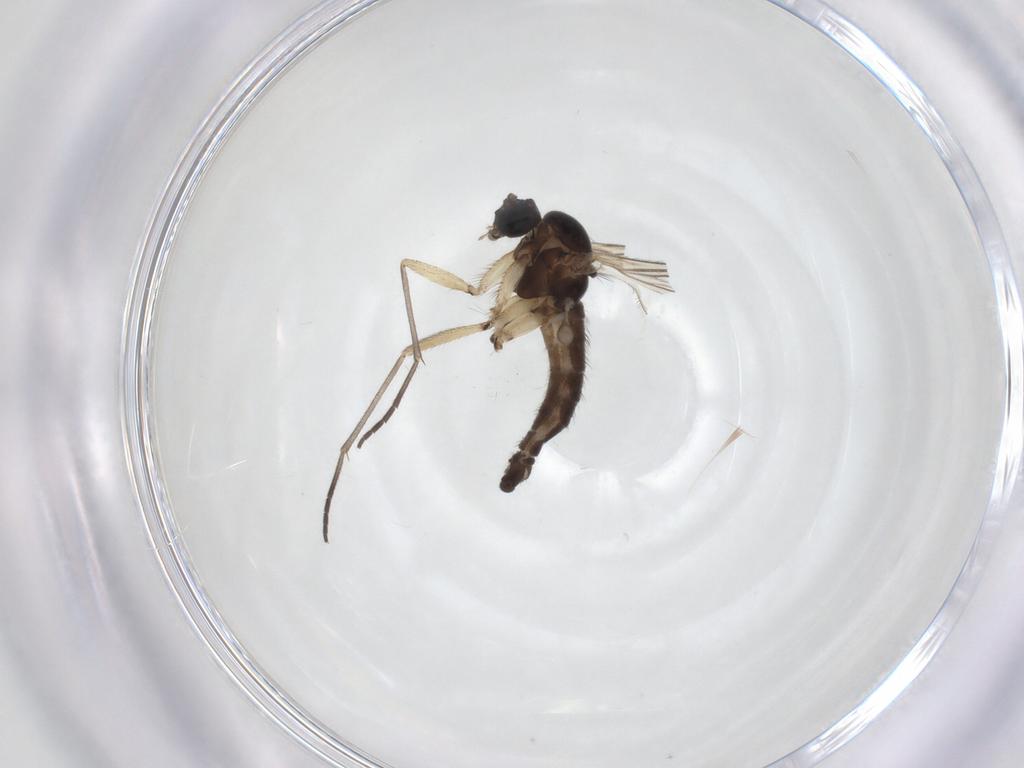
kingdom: Animalia
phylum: Arthropoda
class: Insecta
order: Diptera
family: Sciaridae
